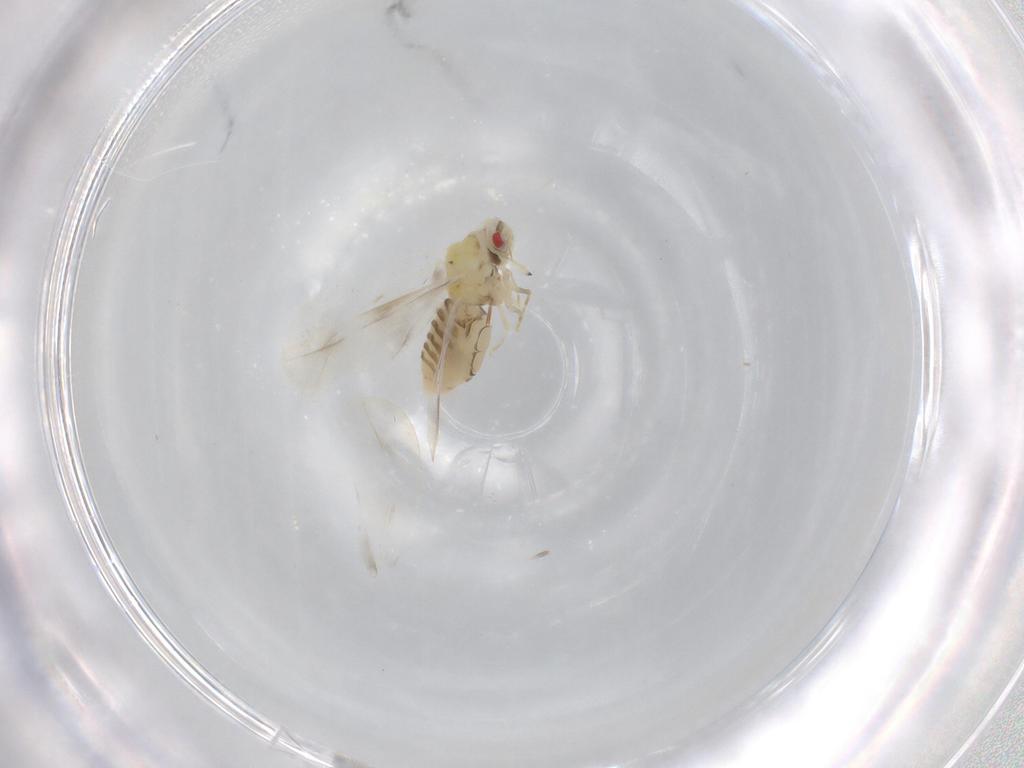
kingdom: Animalia
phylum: Arthropoda
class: Insecta
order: Hemiptera
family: Aleyrodidae
